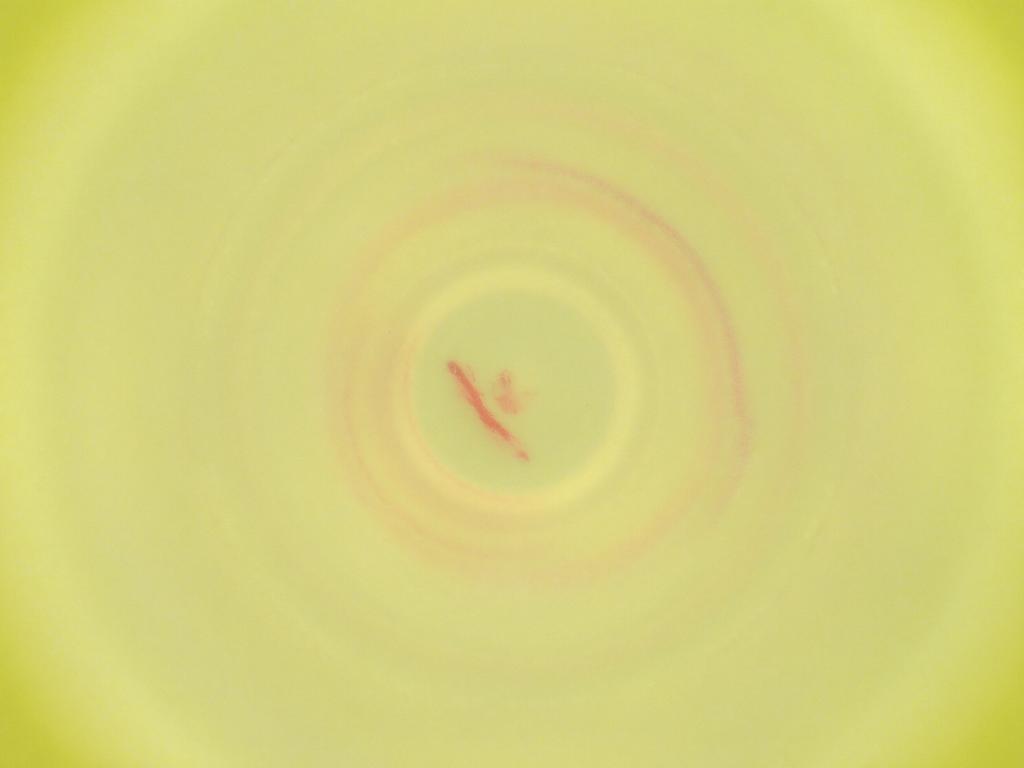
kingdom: Animalia
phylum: Arthropoda
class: Insecta
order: Diptera
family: Cecidomyiidae
